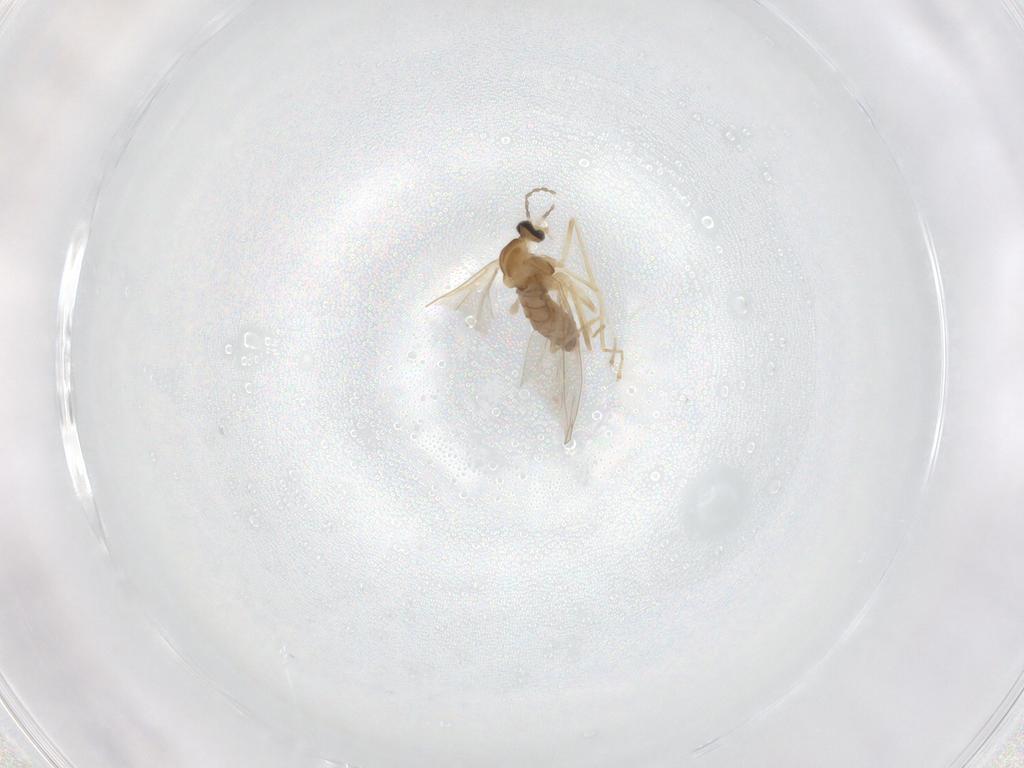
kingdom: Animalia
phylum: Arthropoda
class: Insecta
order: Diptera
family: Cecidomyiidae
